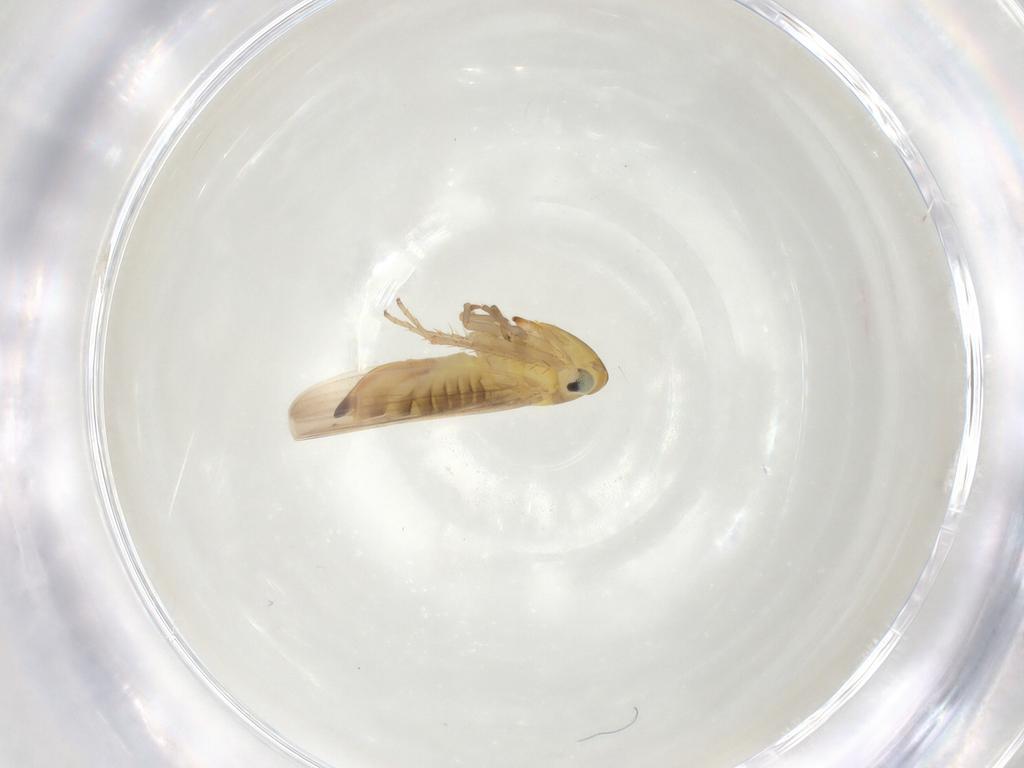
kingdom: Animalia
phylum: Arthropoda
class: Insecta
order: Hemiptera
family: Cicadellidae
